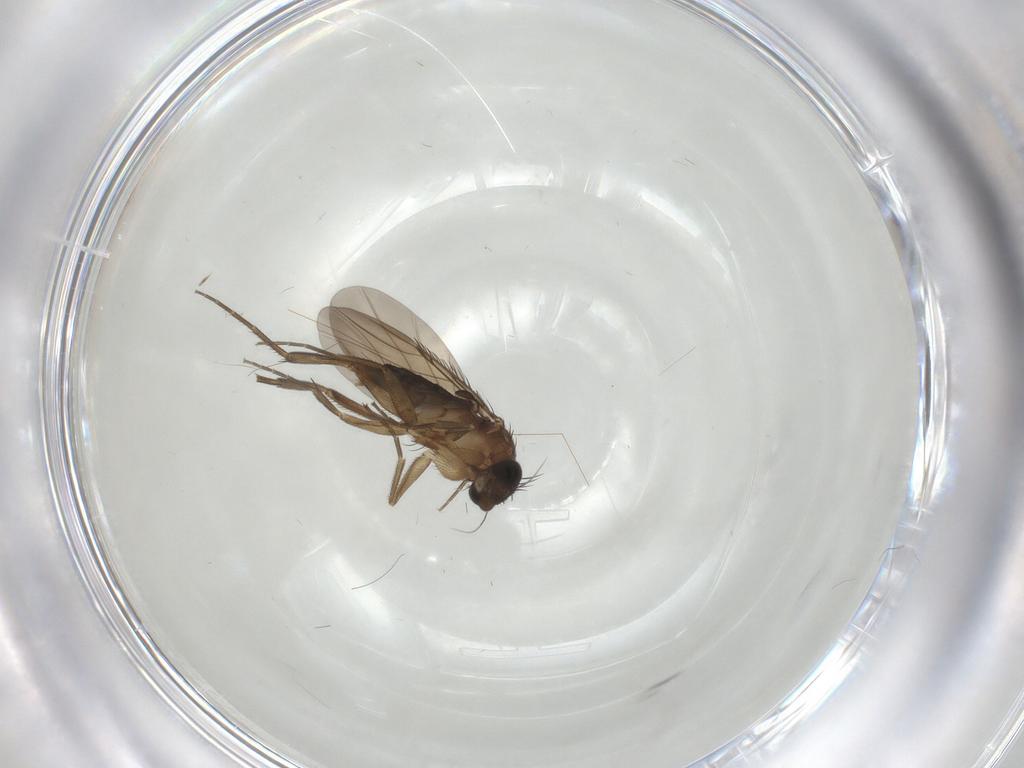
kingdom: Animalia
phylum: Arthropoda
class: Insecta
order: Diptera
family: Phoridae
